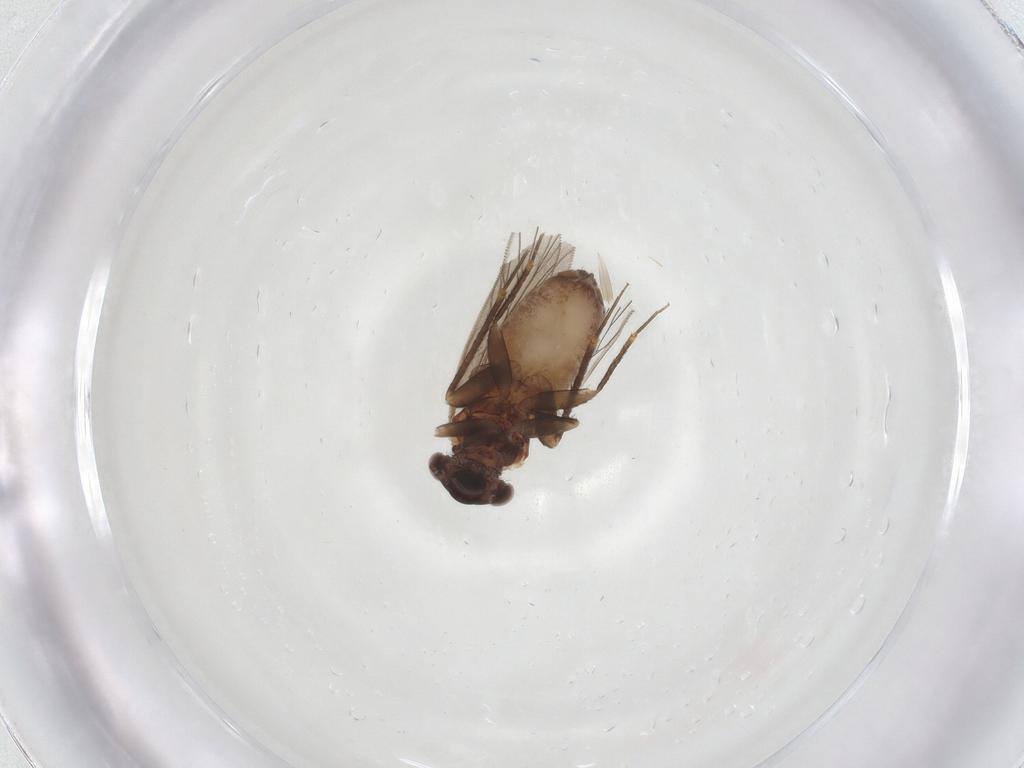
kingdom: Animalia
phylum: Arthropoda
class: Insecta
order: Psocodea
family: Lepidopsocidae
